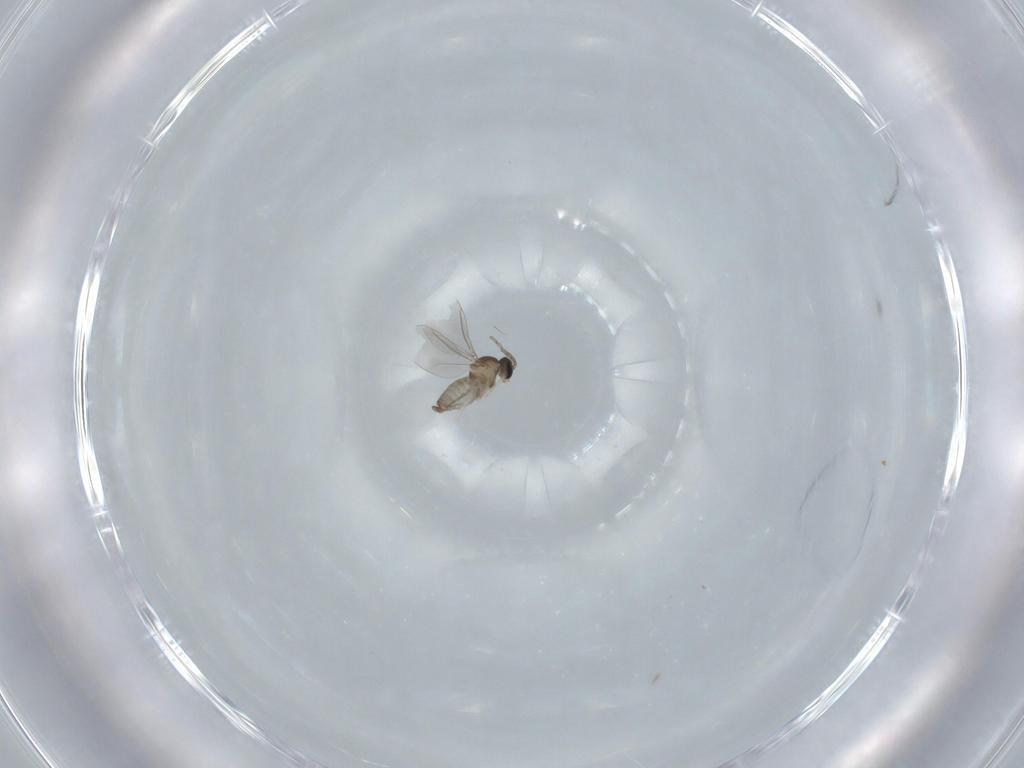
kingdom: Animalia
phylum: Arthropoda
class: Insecta
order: Diptera
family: Cecidomyiidae
